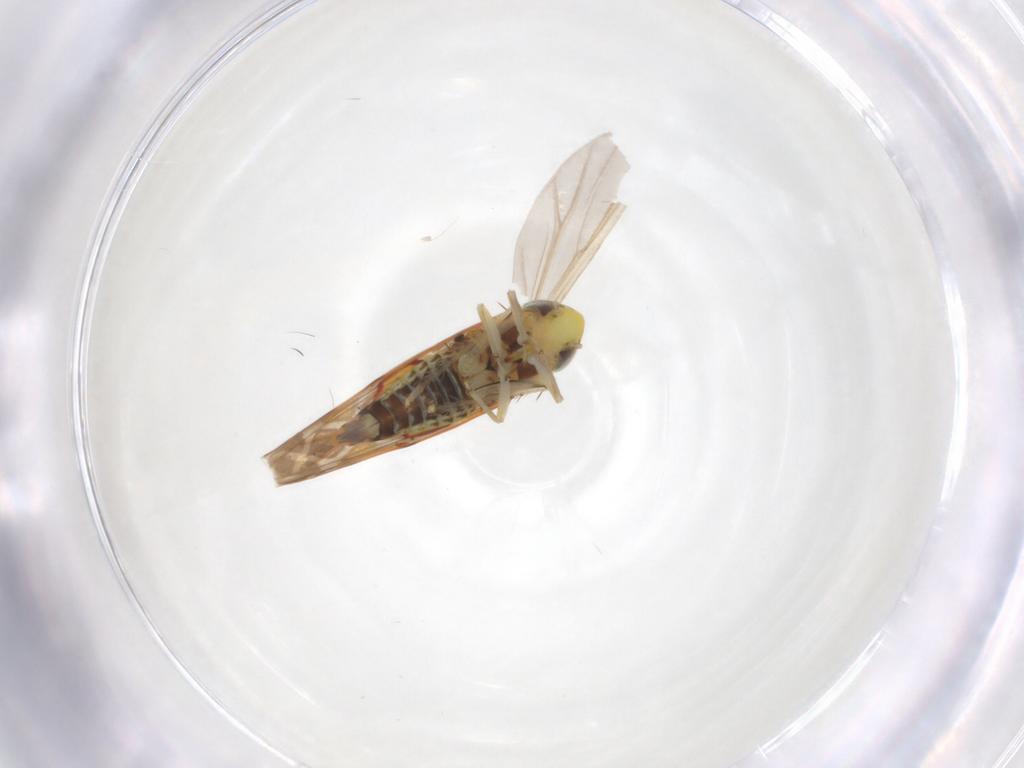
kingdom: Animalia
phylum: Arthropoda
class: Insecta
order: Hemiptera
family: Cicadellidae
